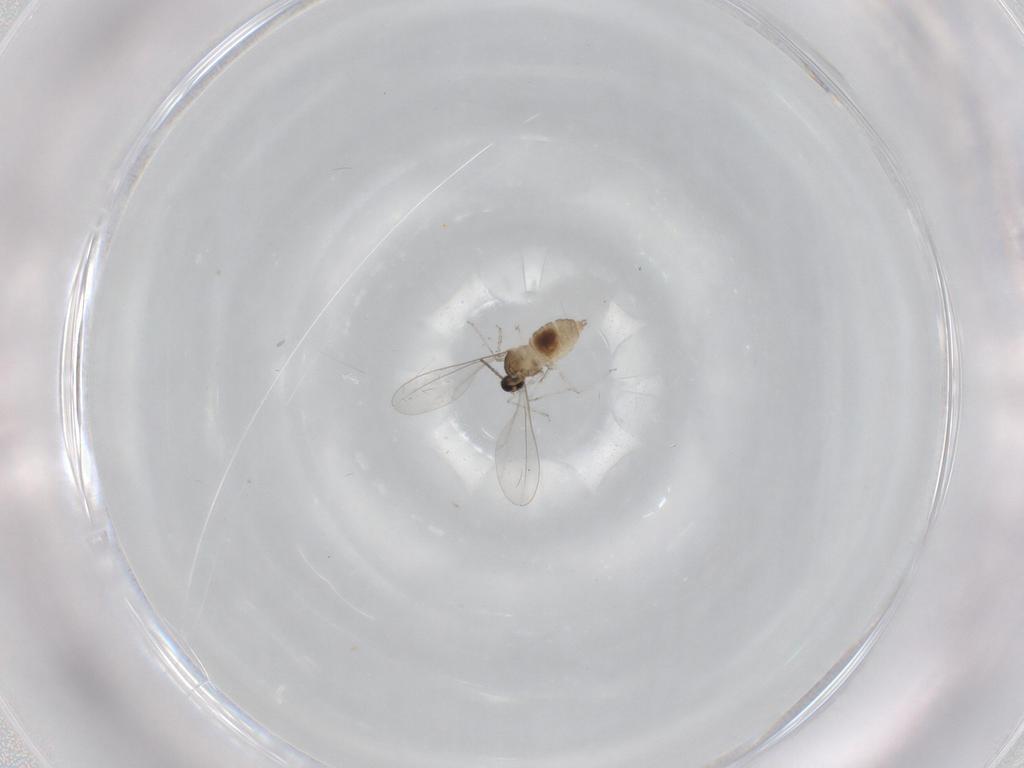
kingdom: Animalia
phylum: Arthropoda
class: Insecta
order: Diptera
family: Cecidomyiidae
